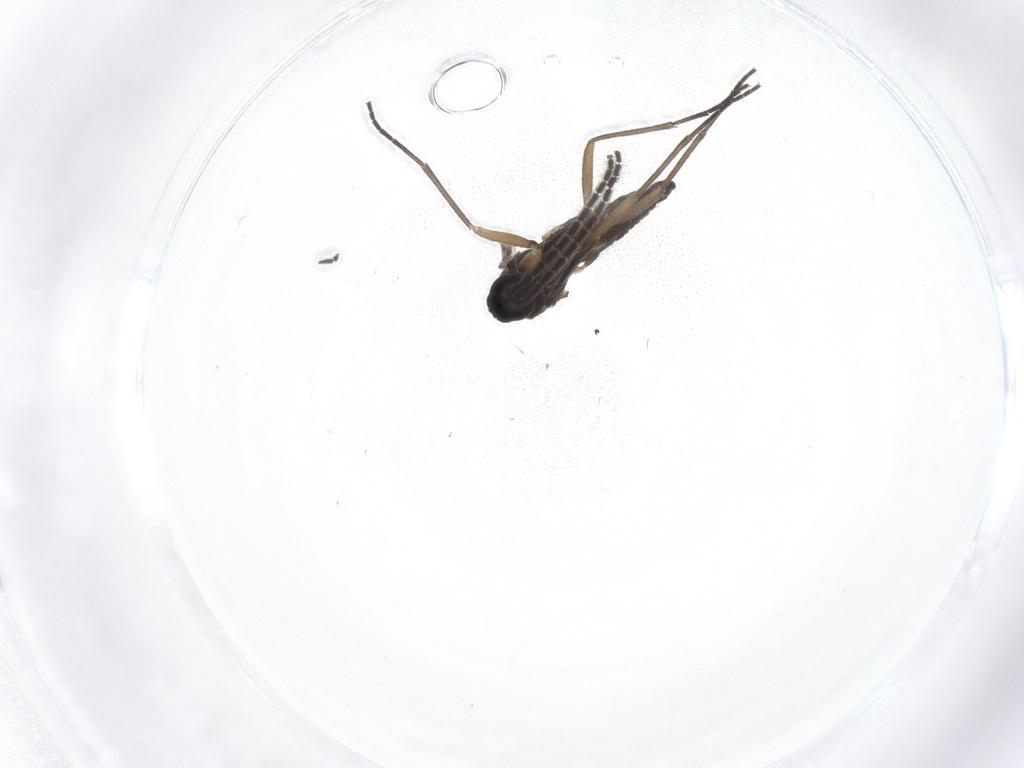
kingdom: Animalia
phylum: Arthropoda
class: Insecta
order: Diptera
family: Sciaridae
